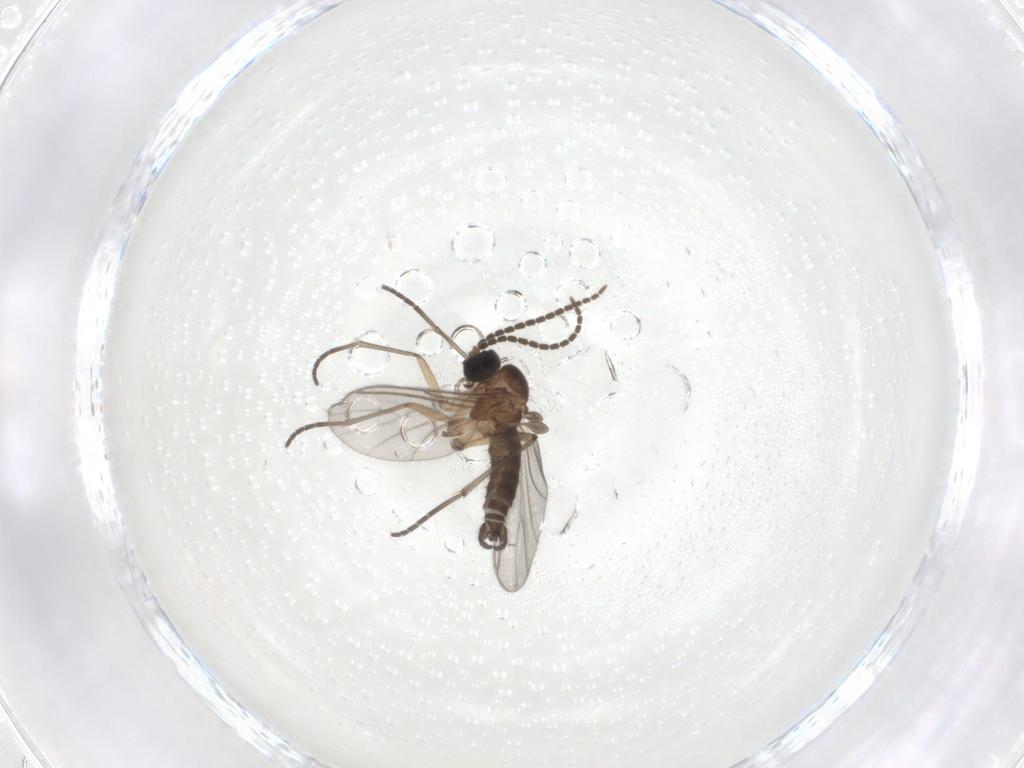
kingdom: Animalia
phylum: Arthropoda
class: Insecta
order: Diptera
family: Sciaridae
